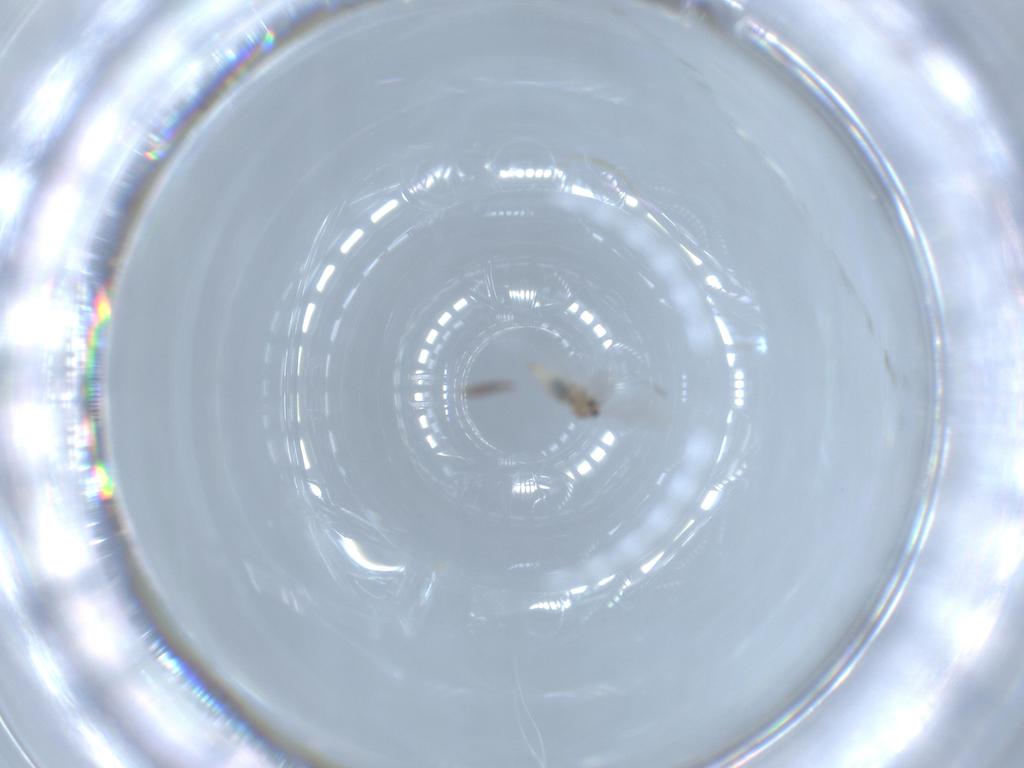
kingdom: Animalia
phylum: Arthropoda
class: Insecta
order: Diptera
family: Cecidomyiidae
